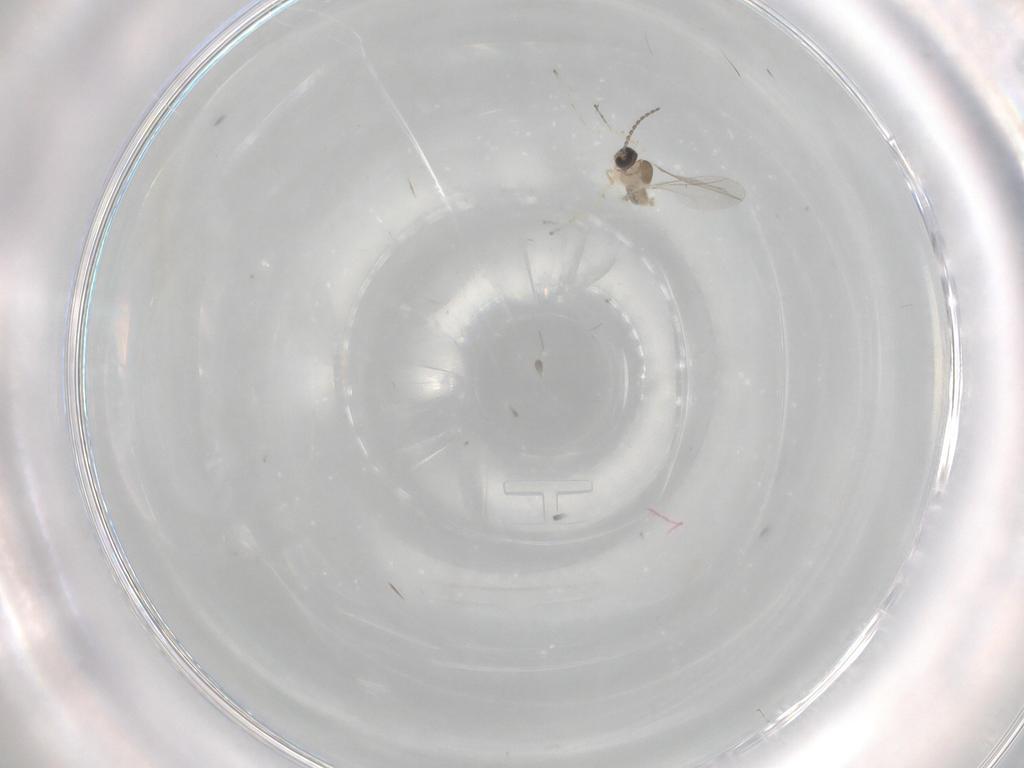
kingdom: Animalia
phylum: Arthropoda
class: Insecta
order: Diptera
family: Cecidomyiidae
